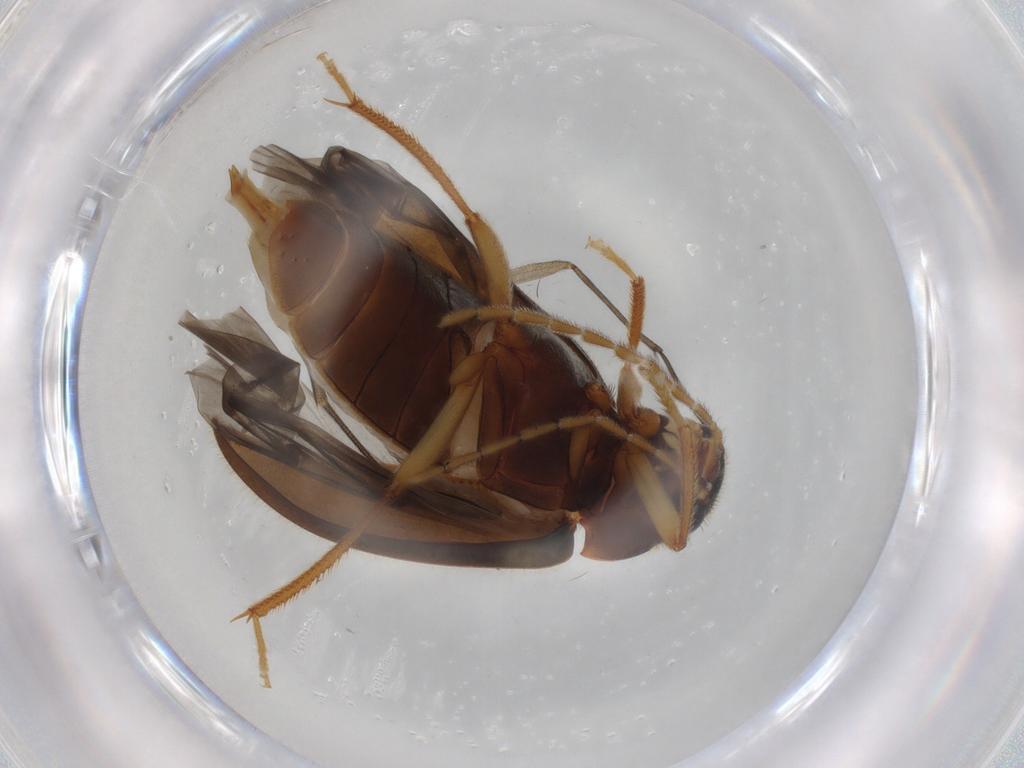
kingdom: Animalia
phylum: Arthropoda
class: Insecta
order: Coleoptera
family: Ptilodactylidae
